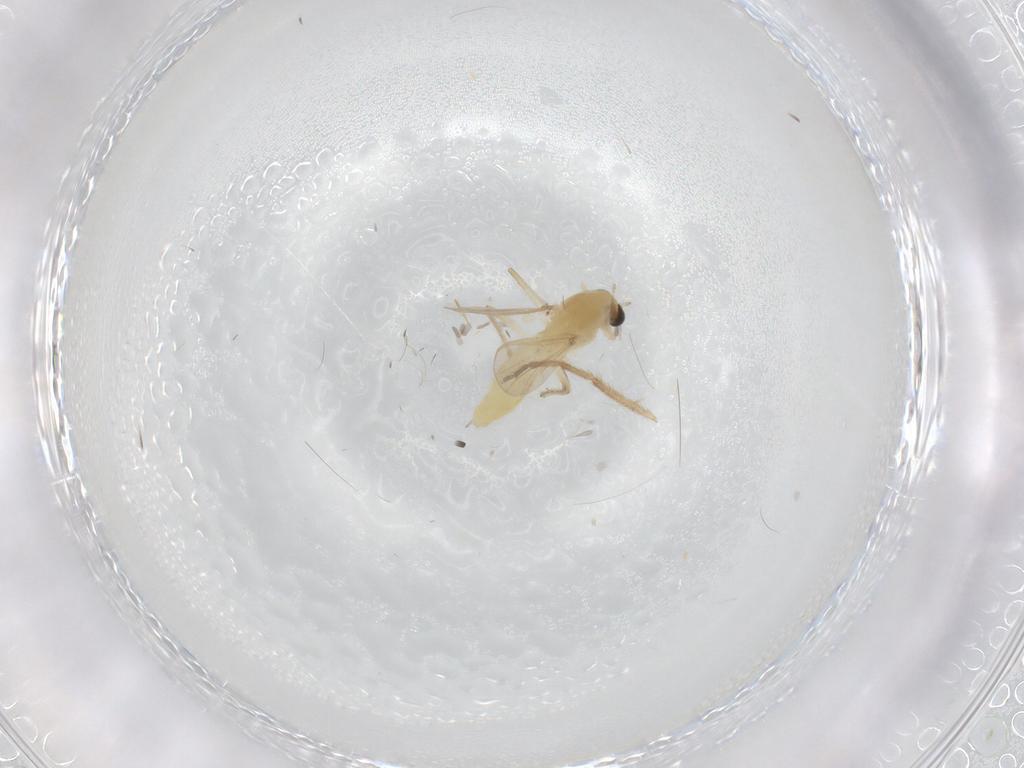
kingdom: Animalia
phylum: Arthropoda
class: Insecta
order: Diptera
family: Chironomidae
